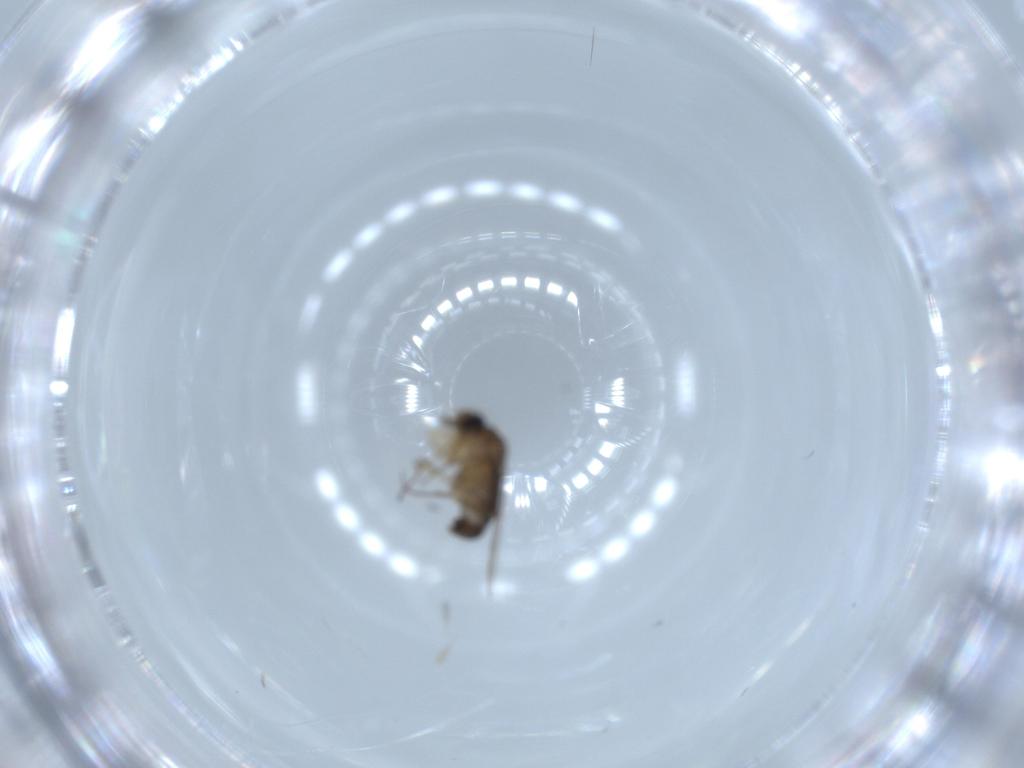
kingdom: Animalia
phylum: Arthropoda
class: Insecta
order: Diptera
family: Phoridae
